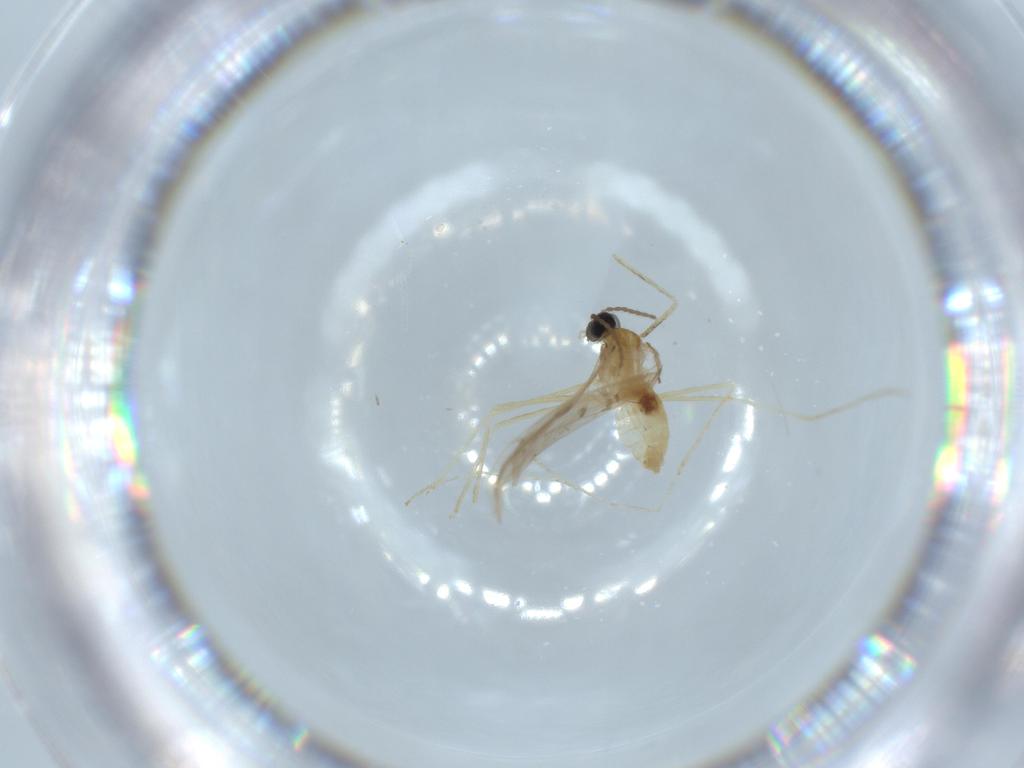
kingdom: Animalia
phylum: Arthropoda
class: Insecta
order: Diptera
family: Cecidomyiidae
